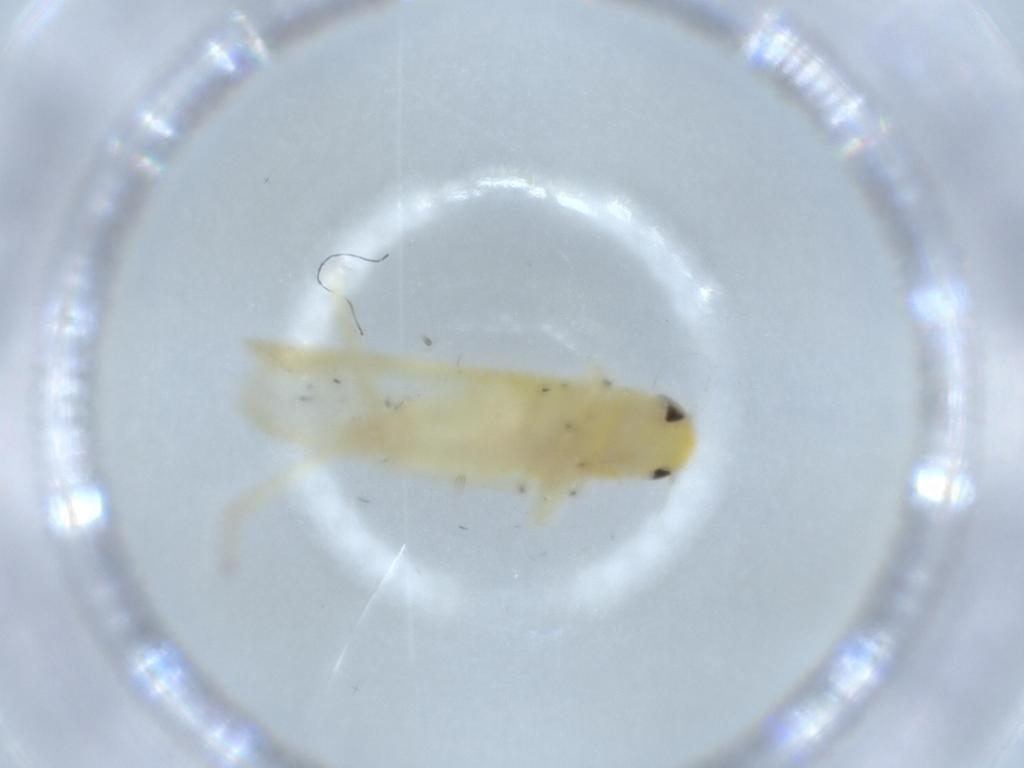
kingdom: Animalia
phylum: Arthropoda
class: Insecta
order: Hemiptera
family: Cicadellidae
